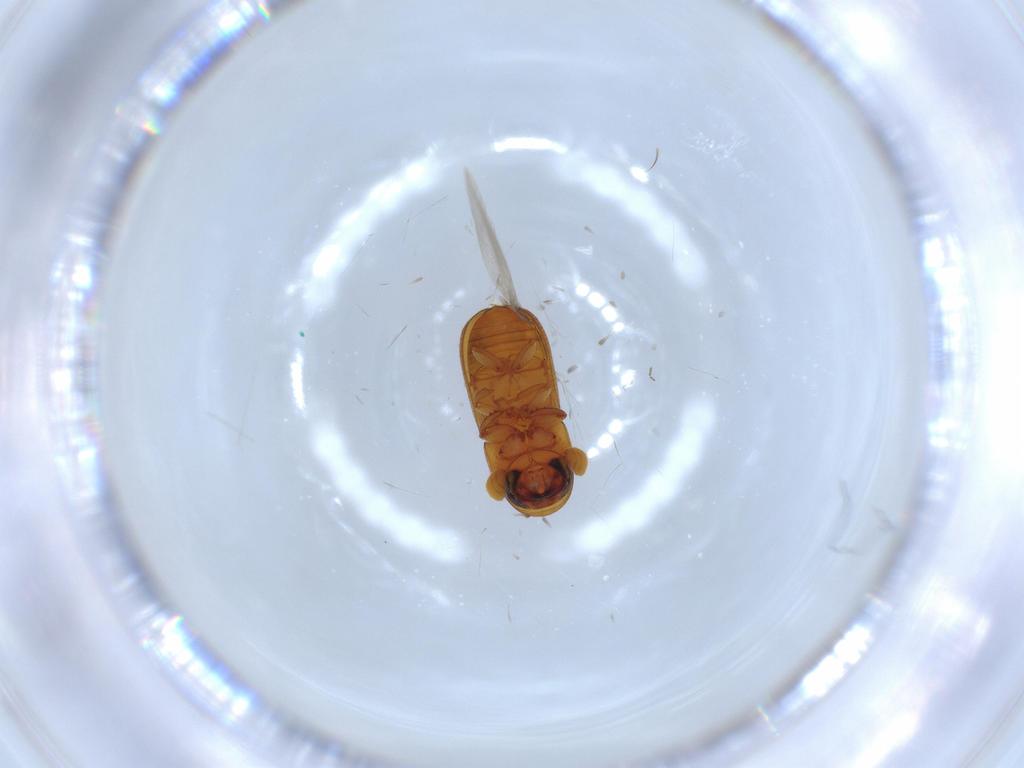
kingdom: Animalia
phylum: Arthropoda
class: Insecta
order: Coleoptera
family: Curculionidae
